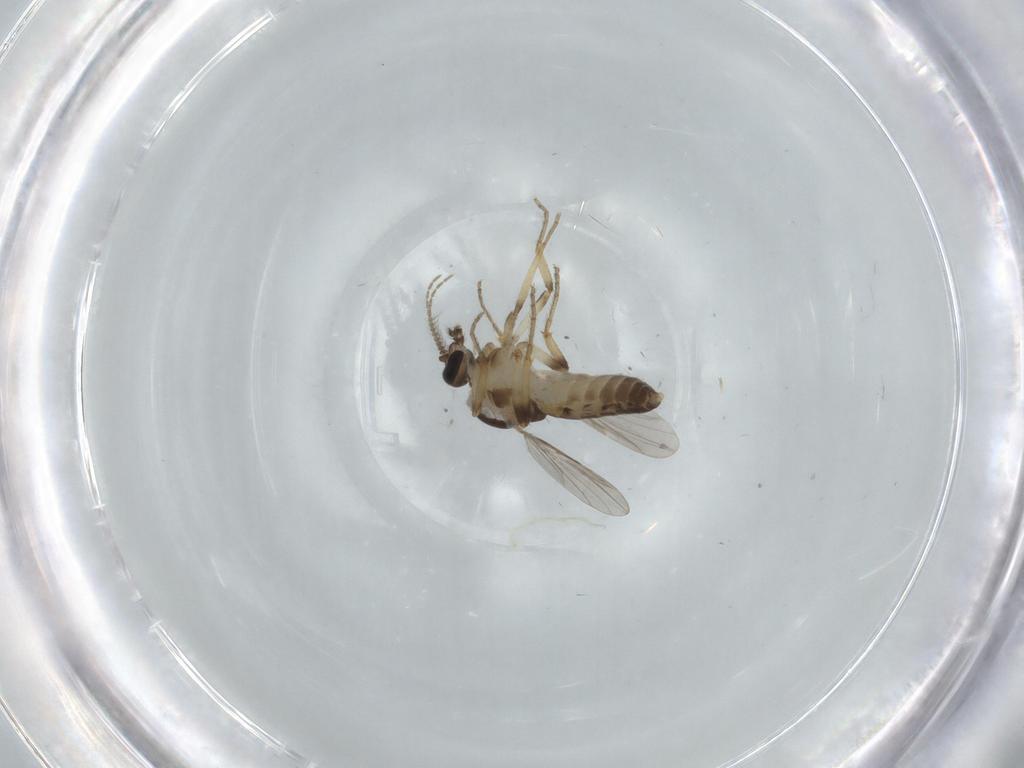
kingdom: Animalia
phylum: Arthropoda
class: Insecta
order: Diptera
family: Ceratopogonidae
